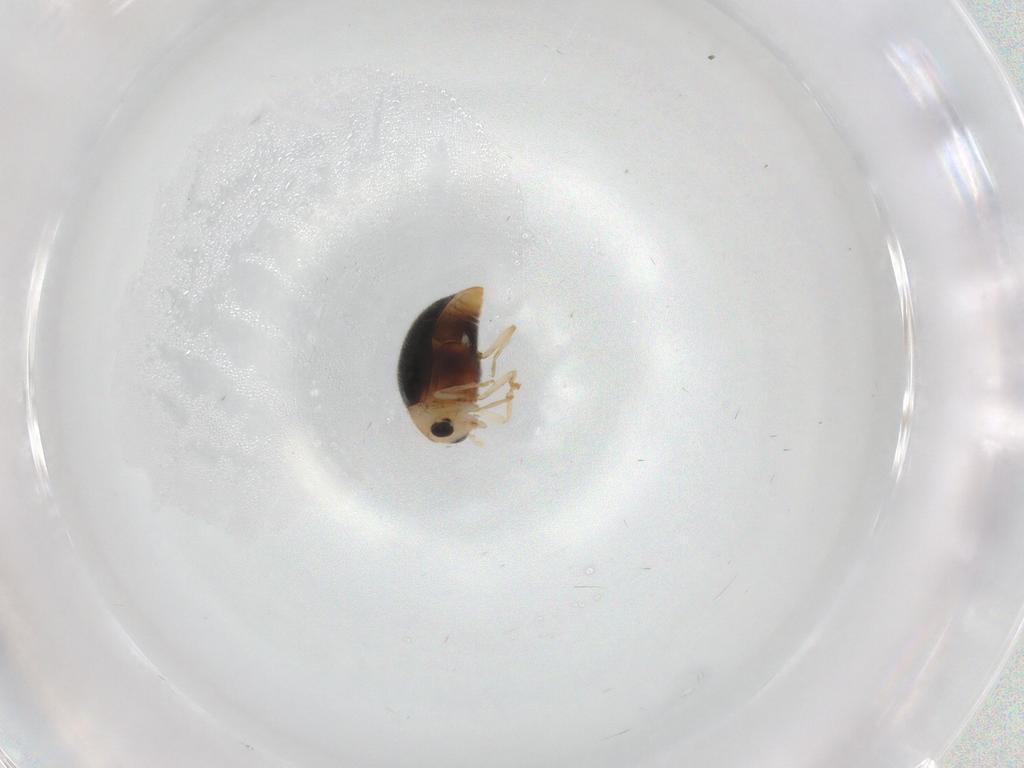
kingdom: Animalia
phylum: Arthropoda
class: Insecta
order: Coleoptera
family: Coccinellidae
